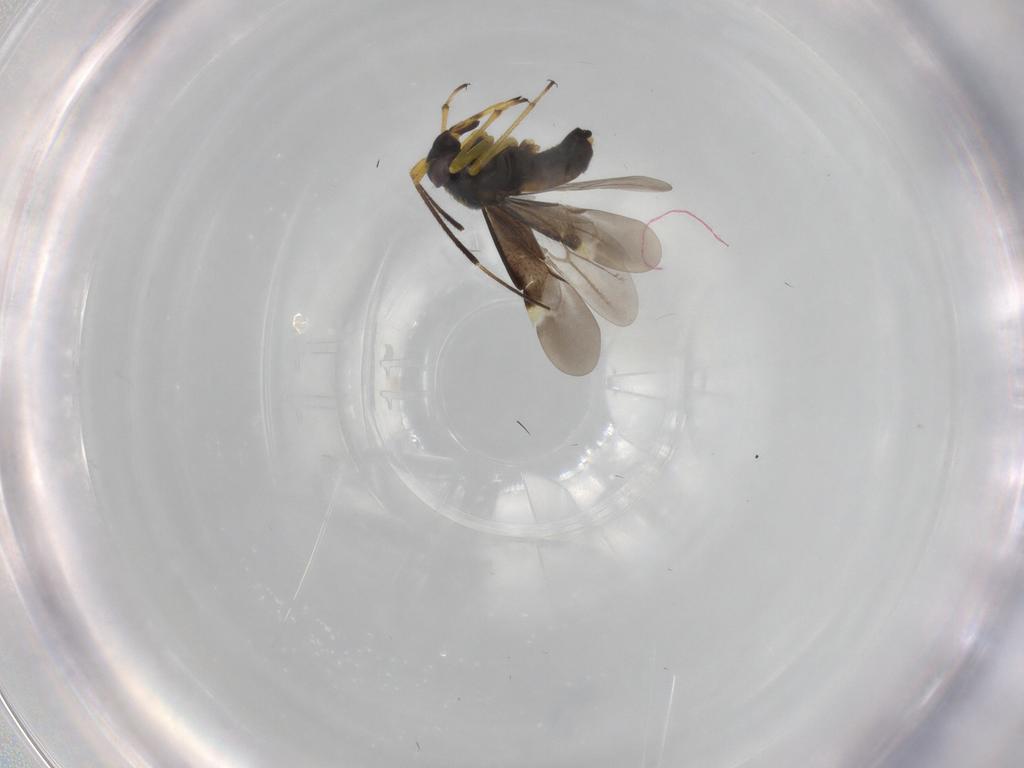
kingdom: Animalia
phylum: Arthropoda
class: Insecta
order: Hemiptera
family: Miridae
